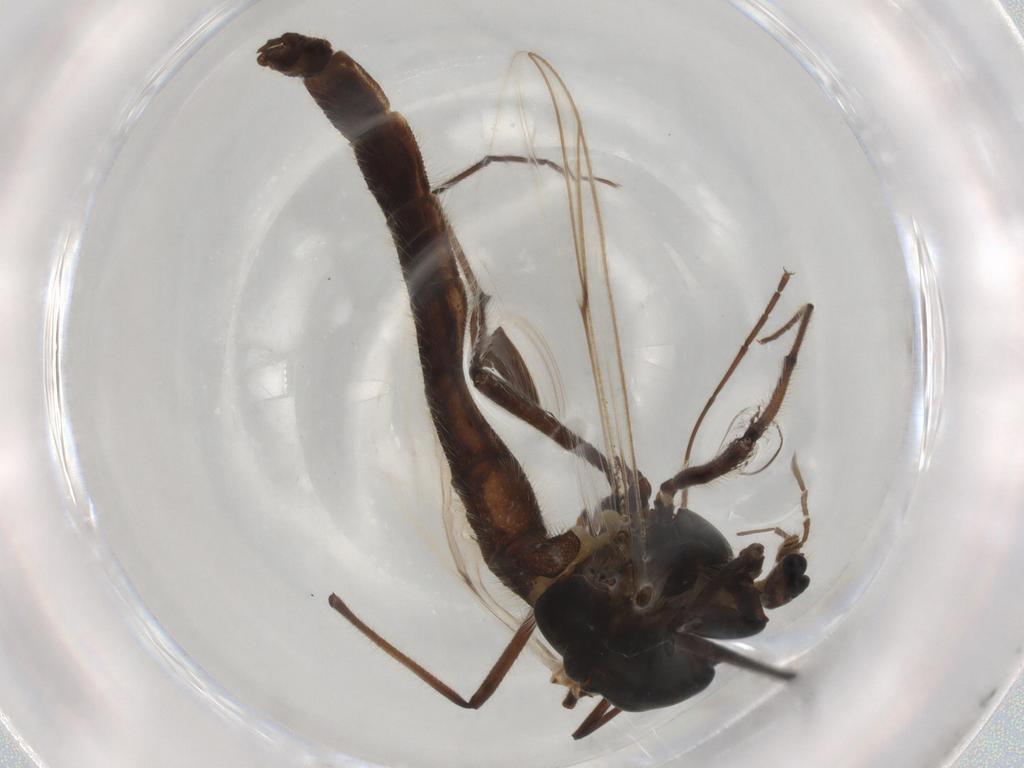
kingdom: Animalia
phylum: Arthropoda
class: Insecta
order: Diptera
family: Chironomidae
